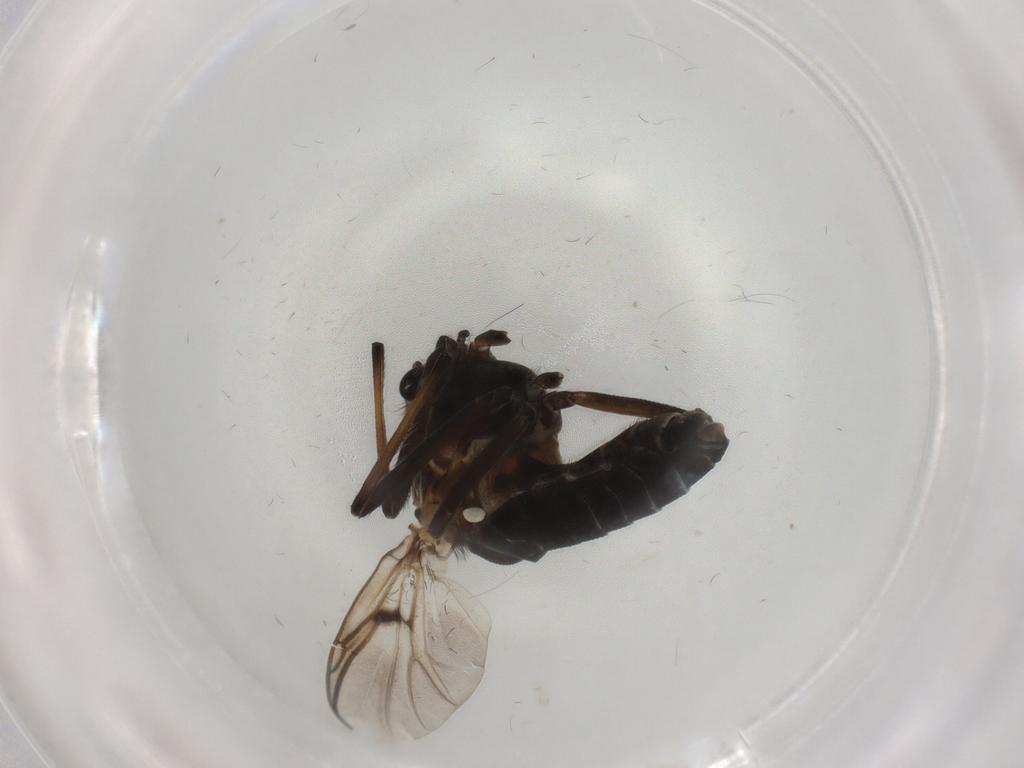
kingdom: Animalia
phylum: Arthropoda
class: Insecta
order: Diptera
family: Chironomidae
